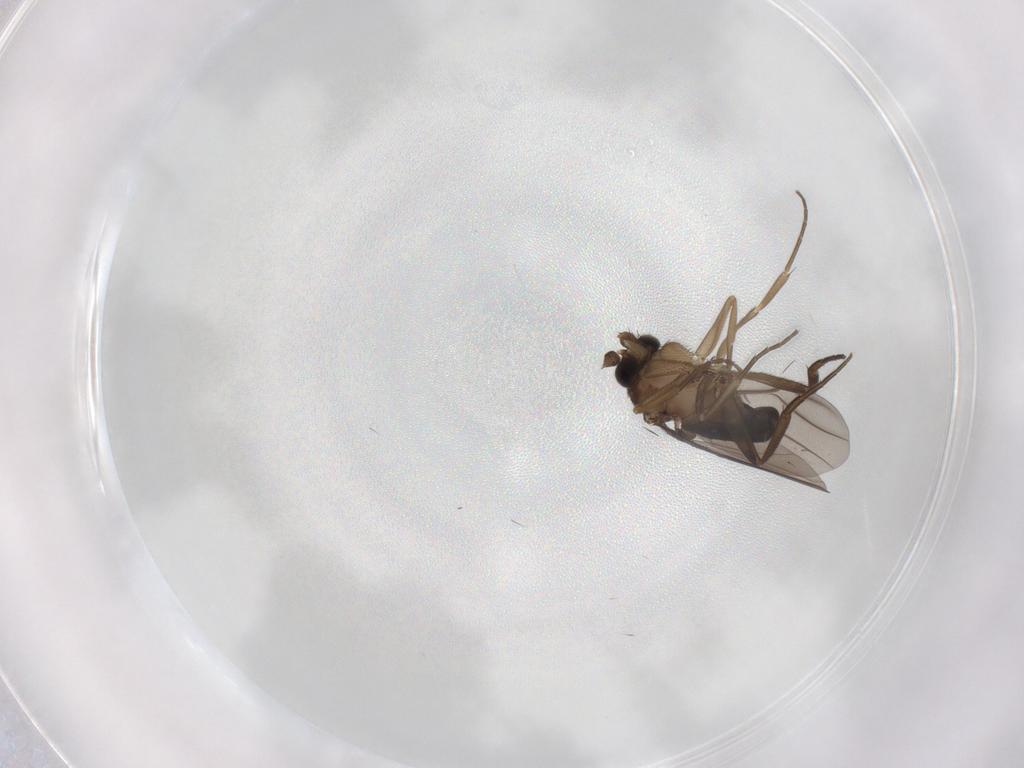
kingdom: Animalia
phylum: Arthropoda
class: Insecta
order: Diptera
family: Phoridae
